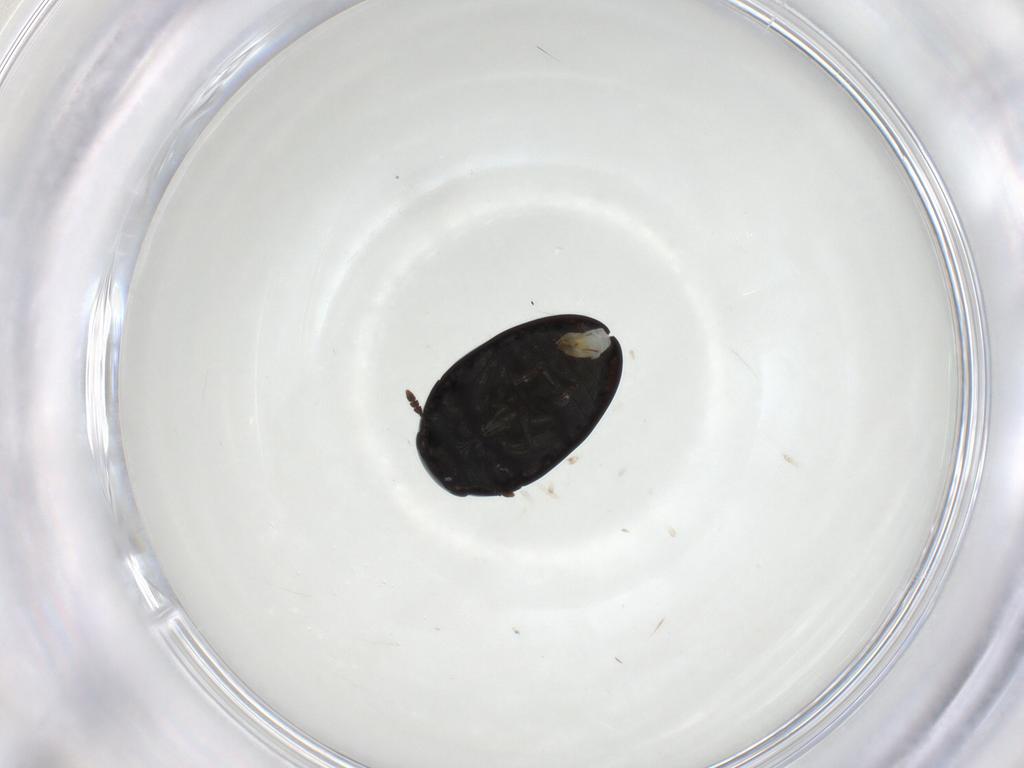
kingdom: Animalia
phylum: Arthropoda
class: Insecta
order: Coleoptera
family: Phalacridae
